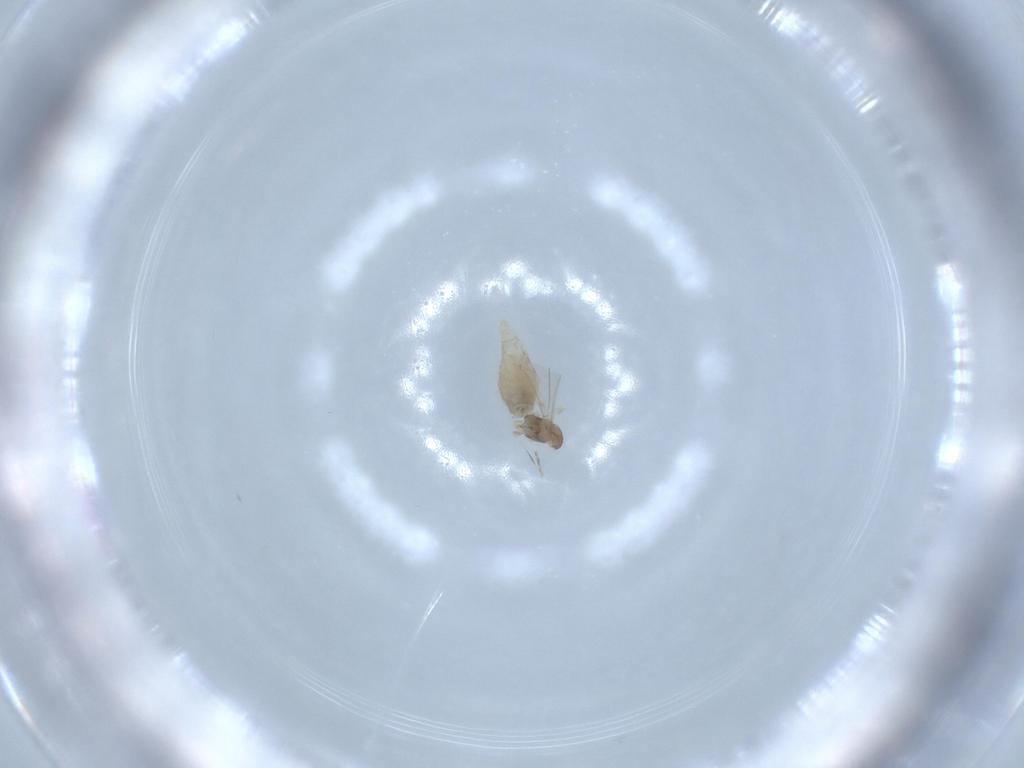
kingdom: Animalia
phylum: Arthropoda
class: Insecta
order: Diptera
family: Cecidomyiidae
